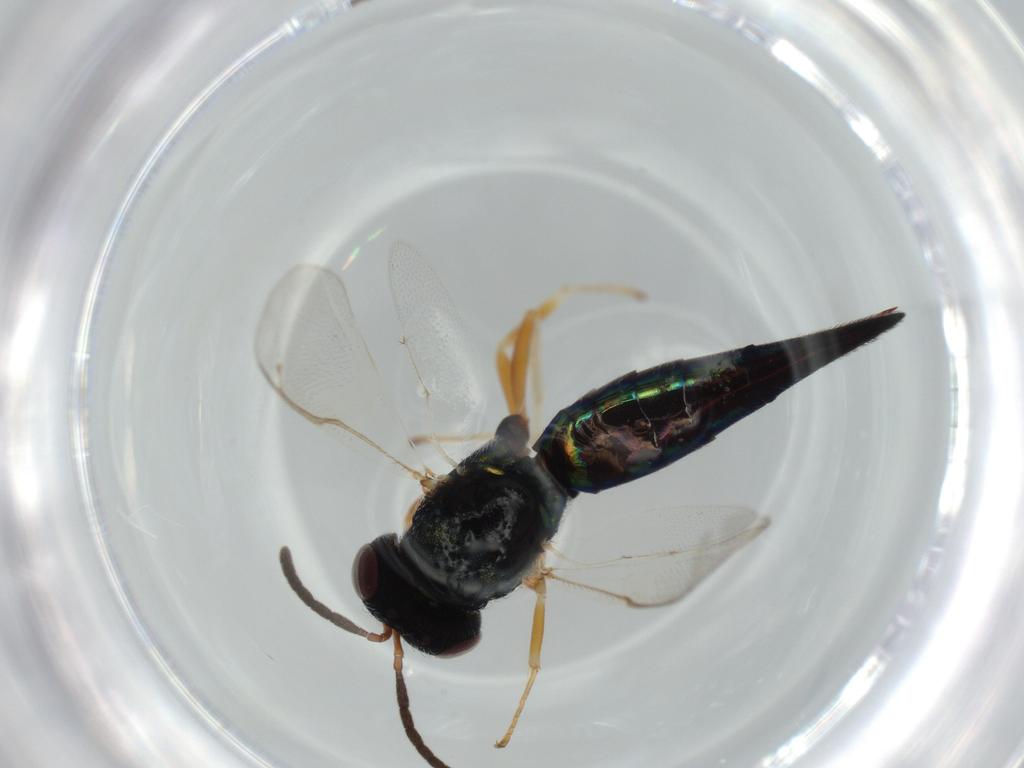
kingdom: Animalia
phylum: Arthropoda
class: Insecta
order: Hymenoptera
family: Pteromalidae
